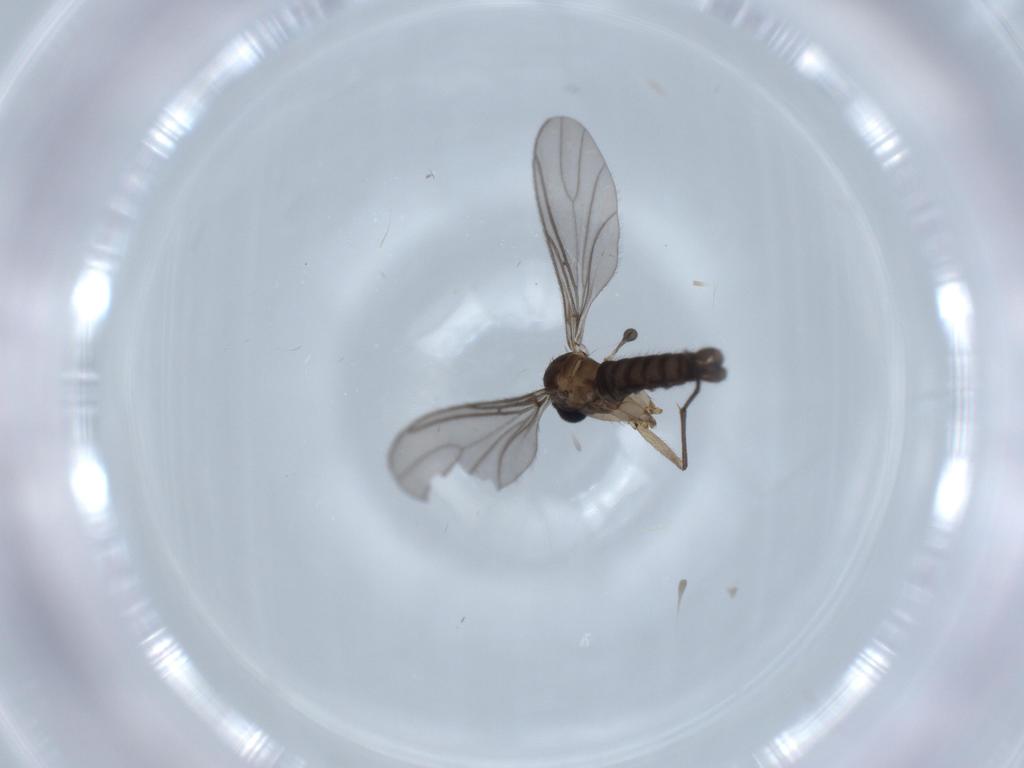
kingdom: Animalia
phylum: Arthropoda
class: Insecta
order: Diptera
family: Sciaridae
